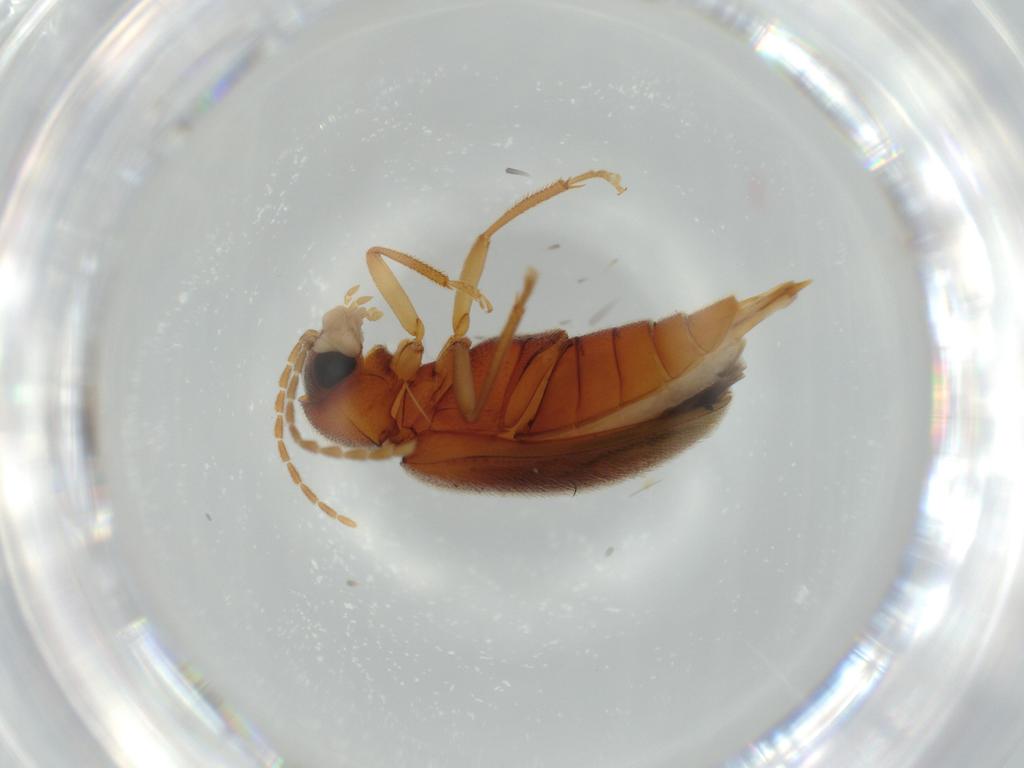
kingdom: Animalia
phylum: Arthropoda
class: Insecta
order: Coleoptera
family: Ptilodactylidae
